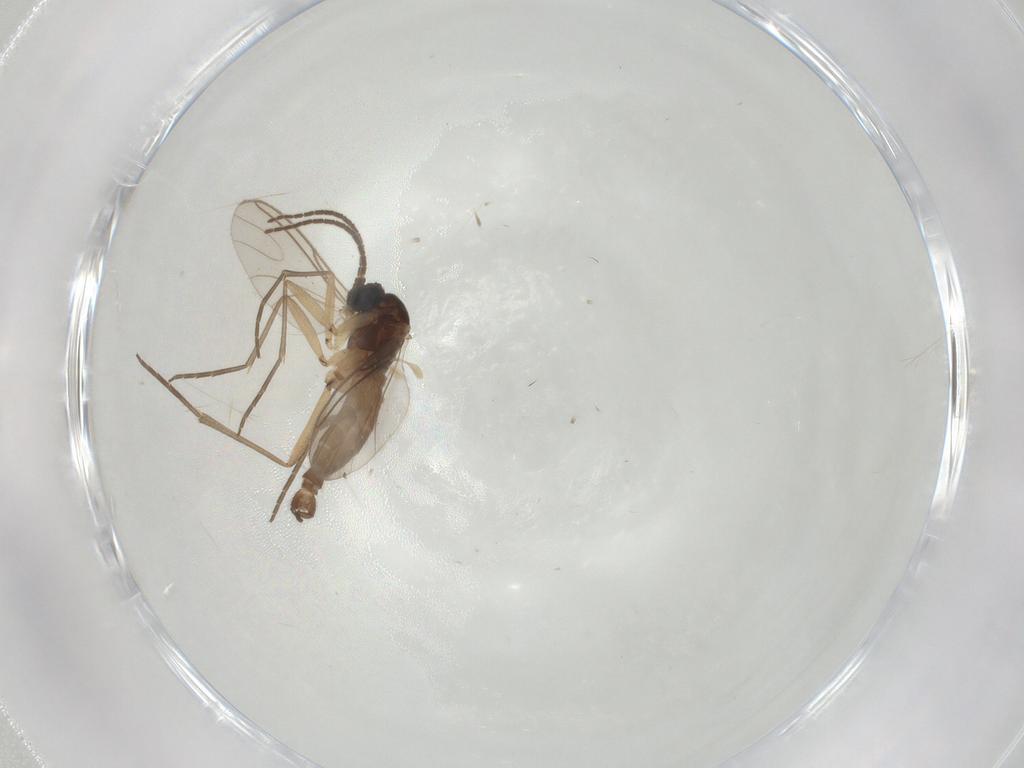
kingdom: Animalia
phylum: Arthropoda
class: Insecta
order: Diptera
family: Sciaridae
